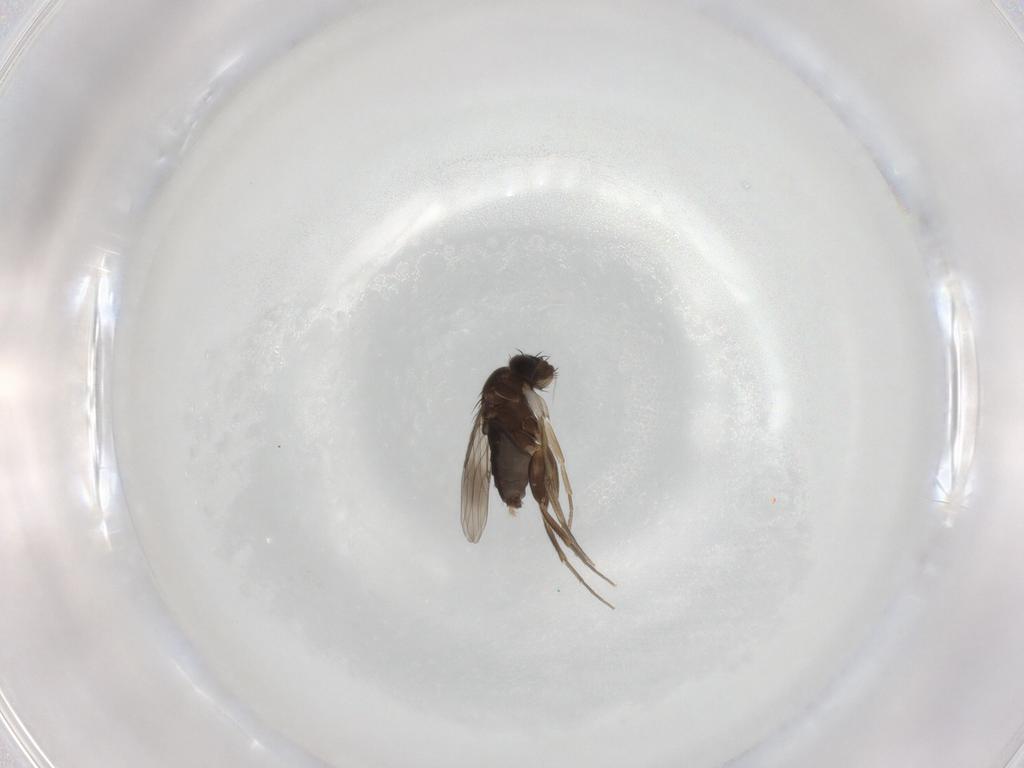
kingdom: Animalia
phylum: Arthropoda
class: Insecta
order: Diptera
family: Phoridae
